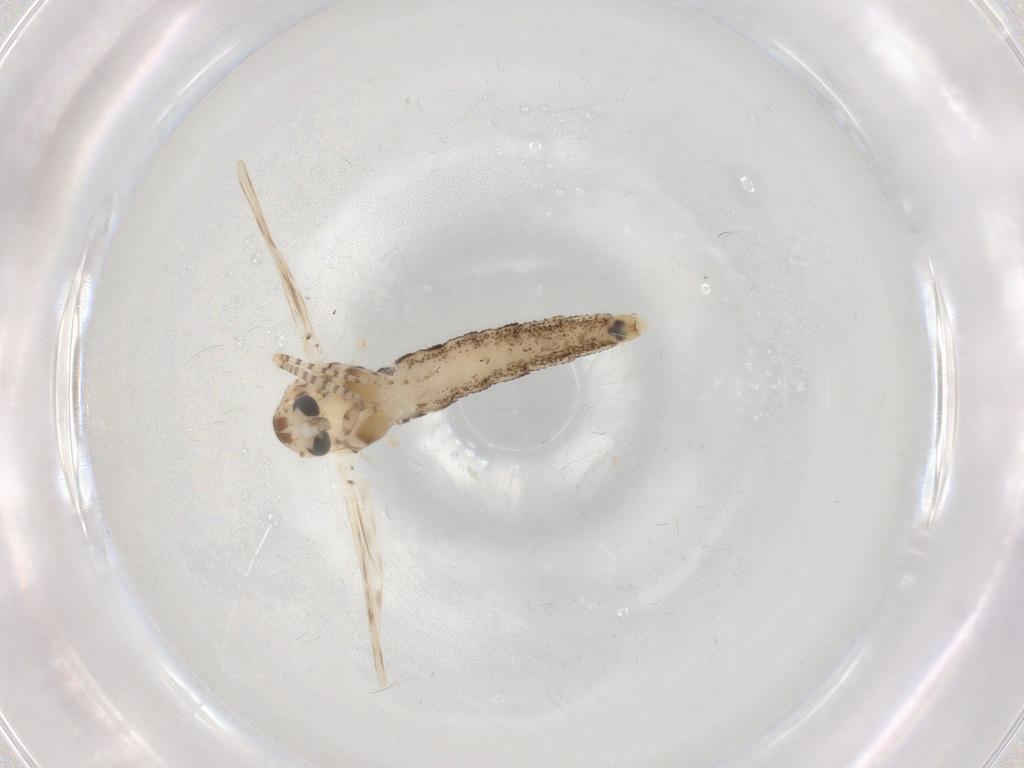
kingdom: Animalia
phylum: Arthropoda
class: Insecta
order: Diptera
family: Chaoboridae
